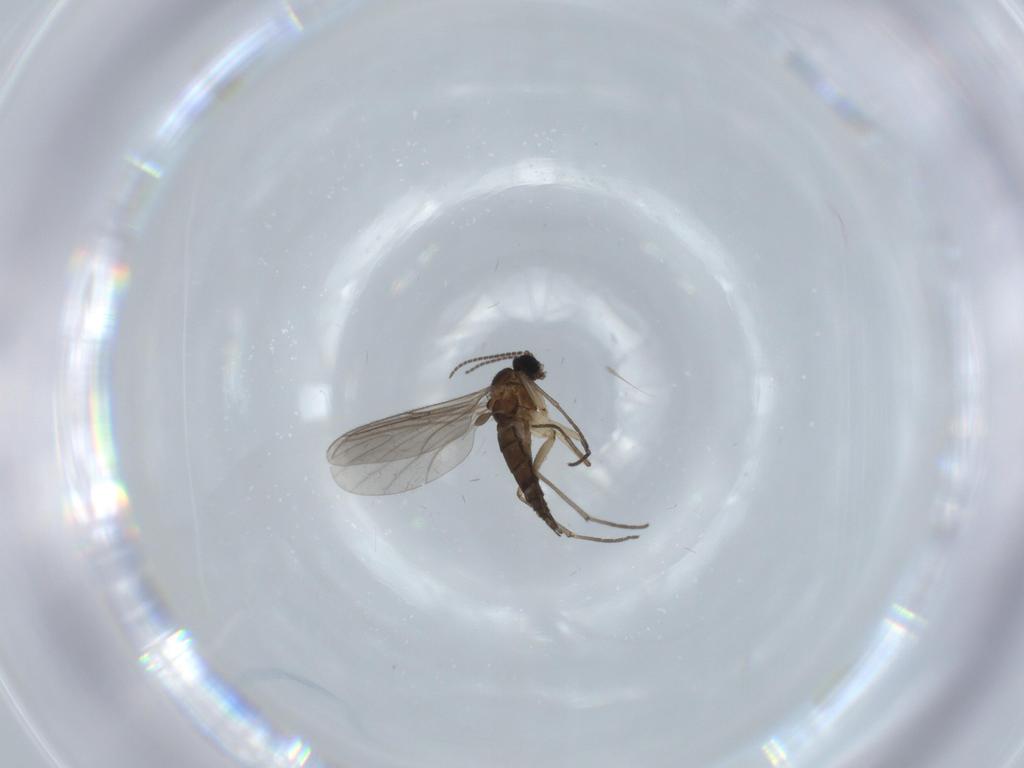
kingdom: Animalia
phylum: Arthropoda
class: Insecta
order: Diptera
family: Sciaridae
